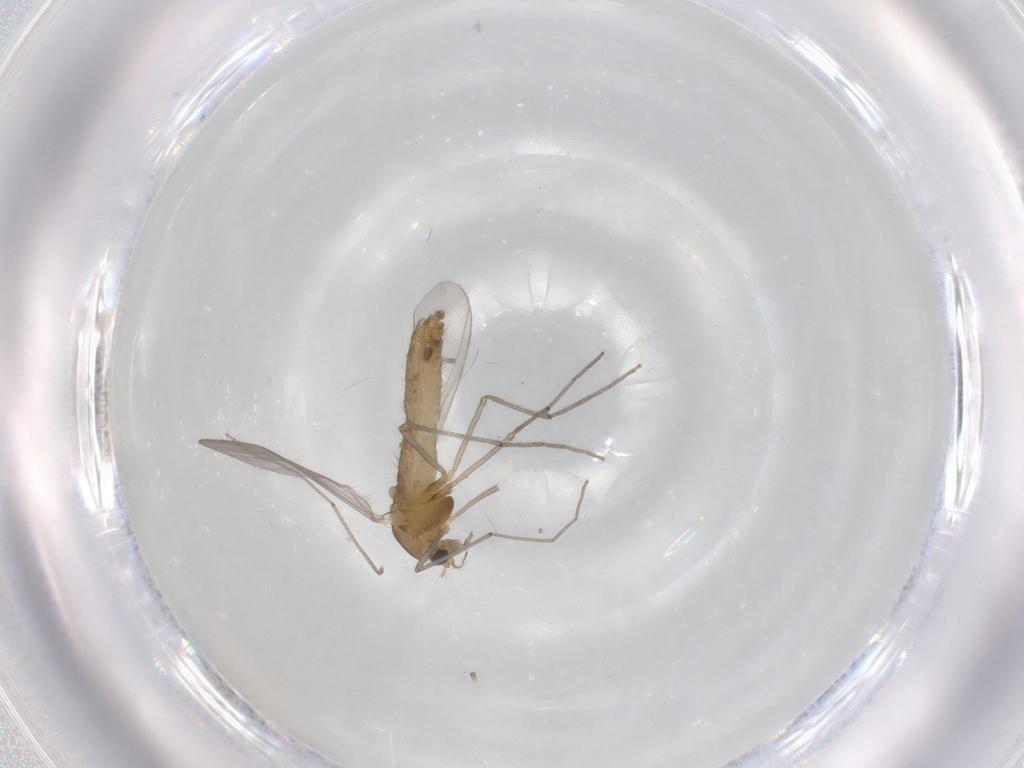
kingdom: Animalia
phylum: Arthropoda
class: Insecta
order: Diptera
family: Chironomidae
